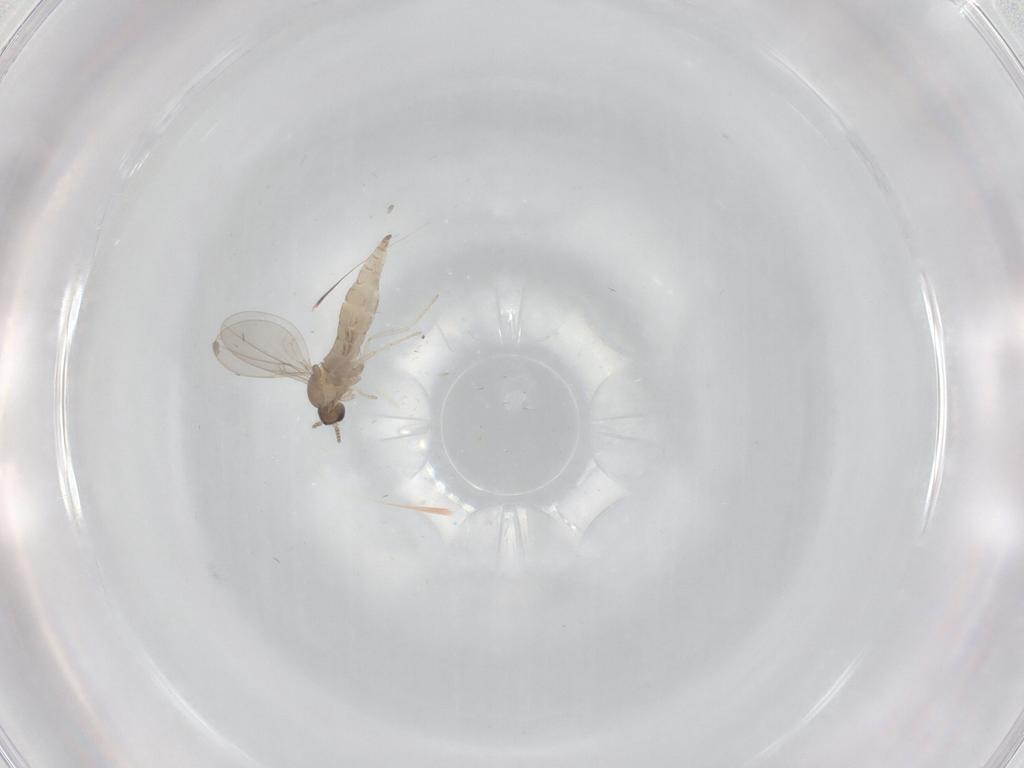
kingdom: Animalia
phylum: Arthropoda
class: Insecta
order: Diptera
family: Cecidomyiidae
